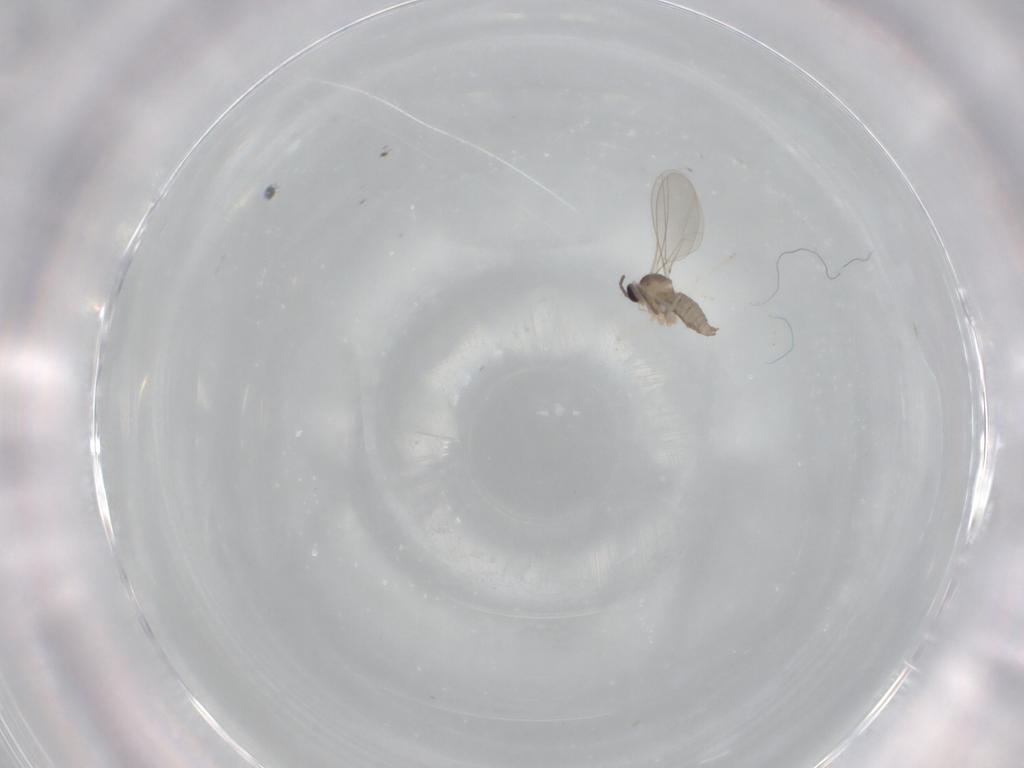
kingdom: Animalia
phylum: Arthropoda
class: Insecta
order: Diptera
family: Cecidomyiidae
